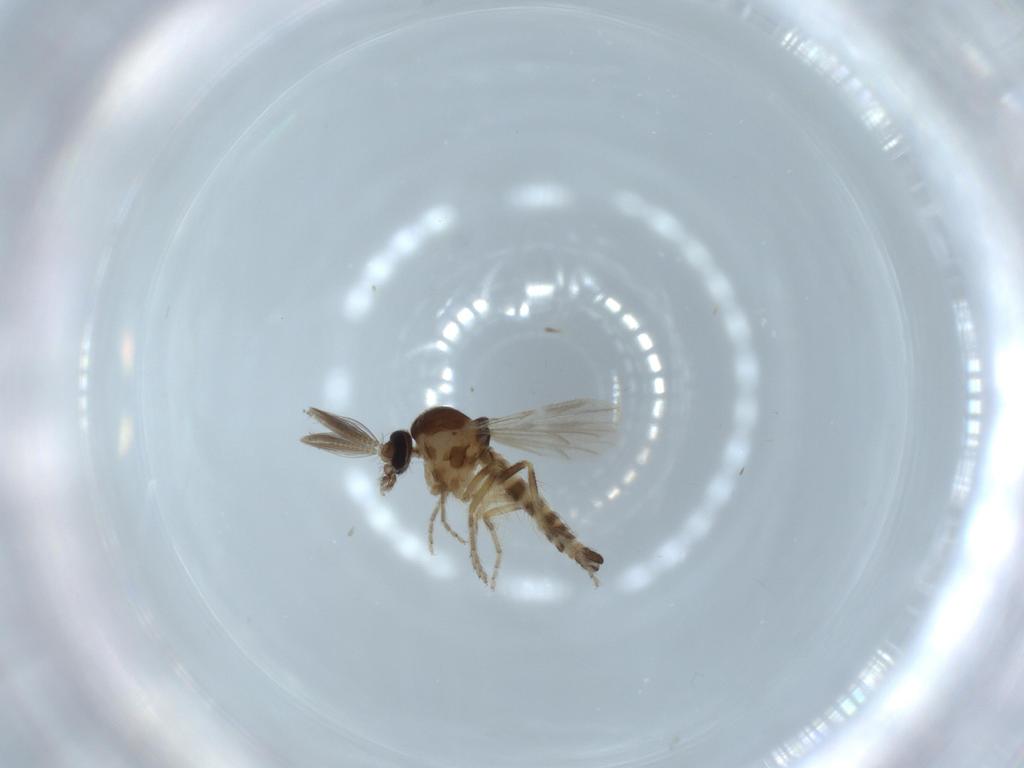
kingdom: Animalia
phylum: Arthropoda
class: Insecta
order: Diptera
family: Ceratopogonidae
